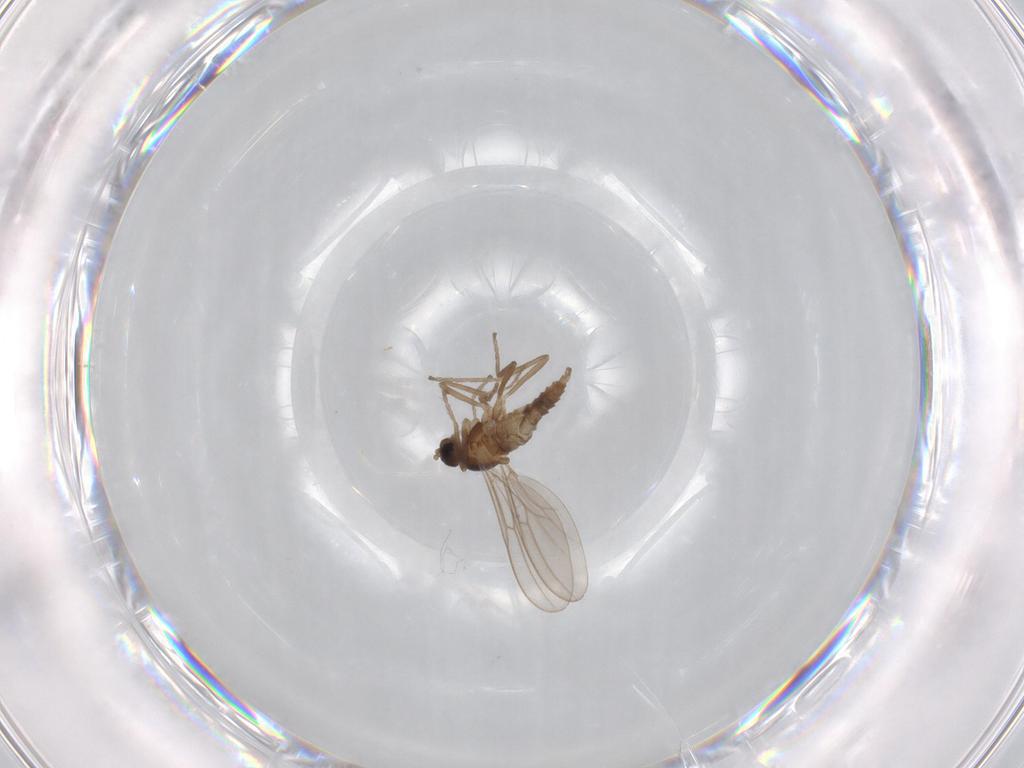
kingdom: Animalia
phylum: Arthropoda
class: Insecta
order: Diptera
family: Cecidomyiidae
